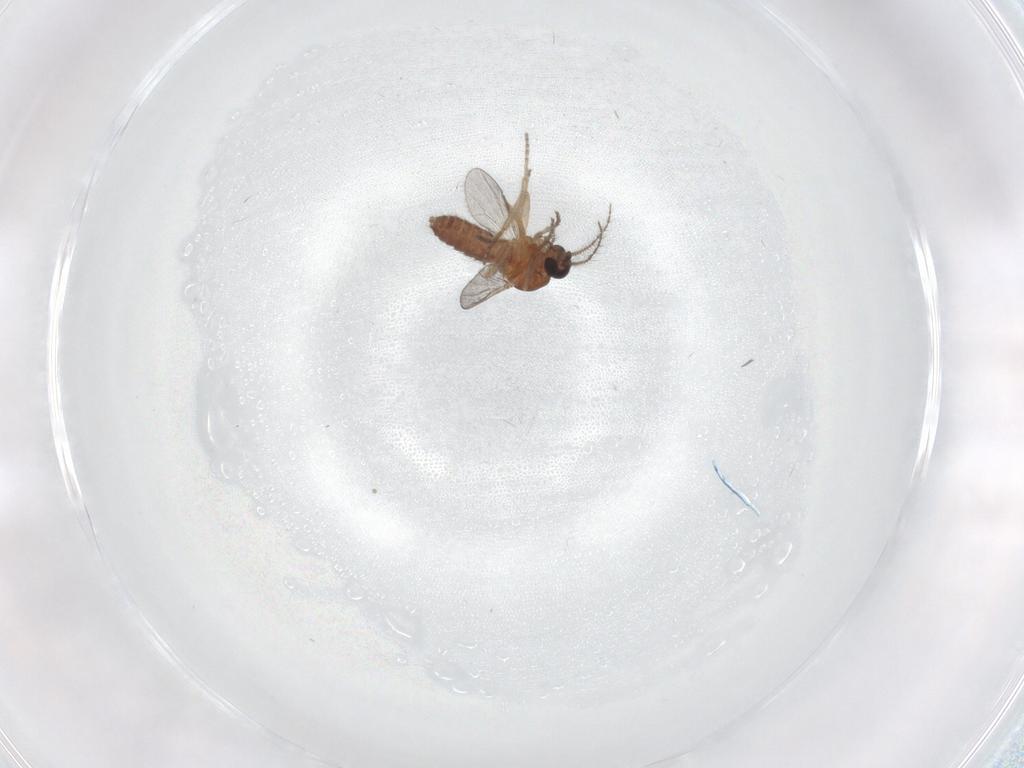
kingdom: Animalia
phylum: Arthropoda
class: Insecta
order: Diptera
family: Ceratopogonidae
